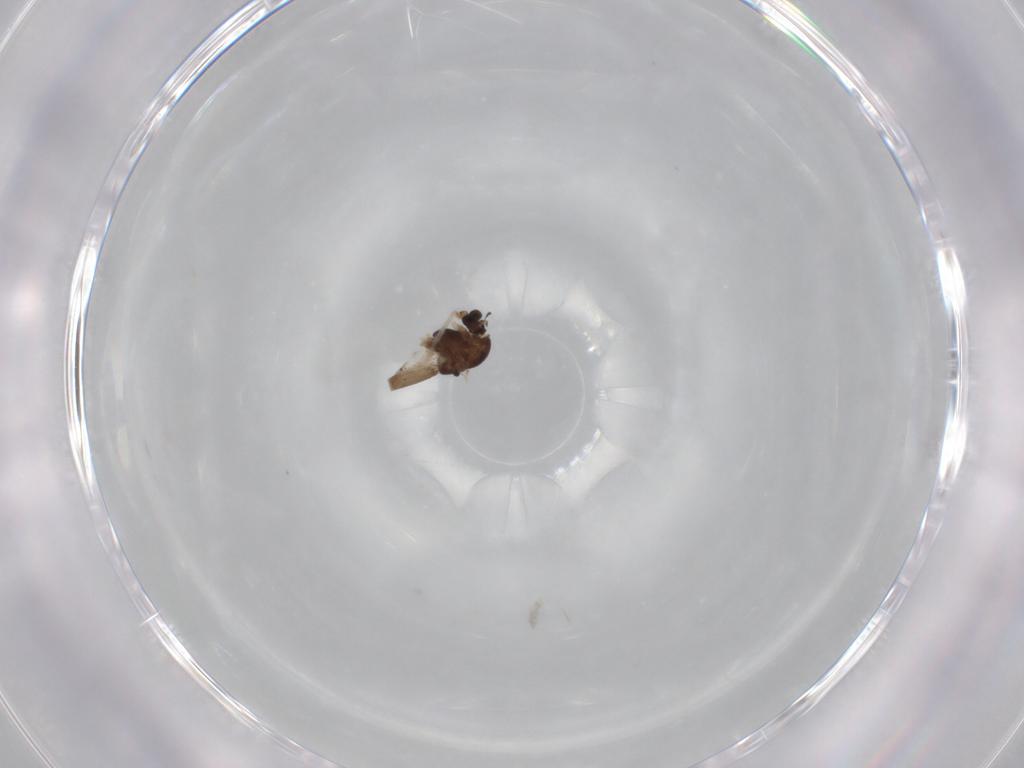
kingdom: Animalia
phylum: Arthropoda
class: Insecta
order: Diptera
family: Chironomidae
